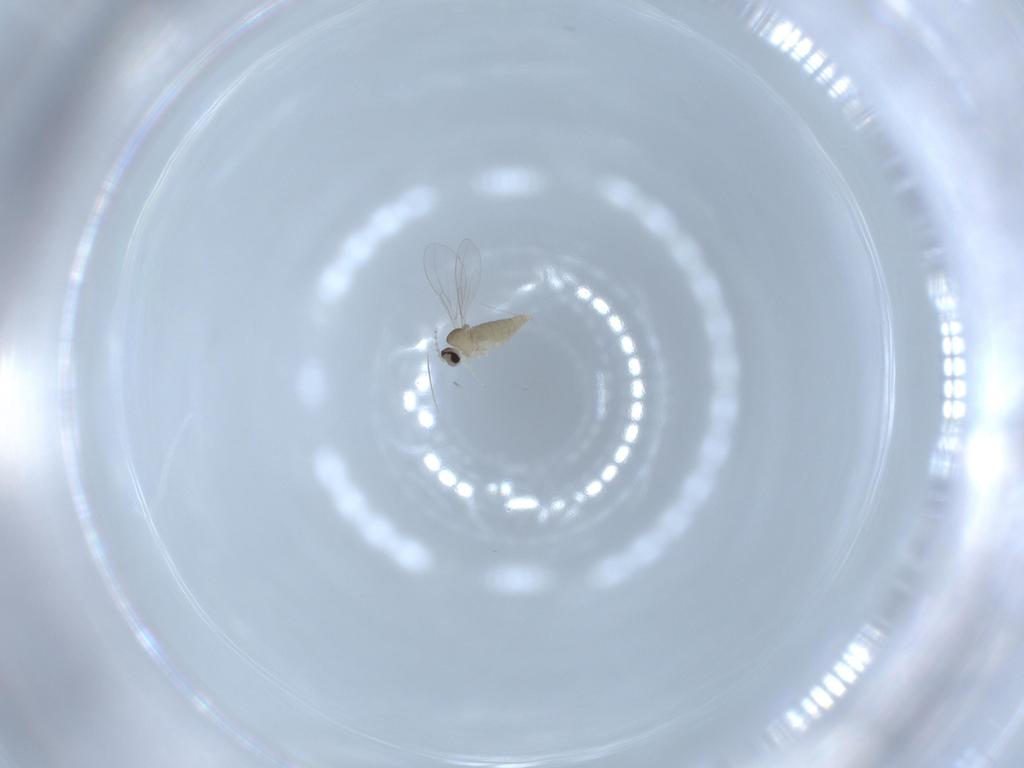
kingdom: Animalia
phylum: Arthropoda
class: Insecta
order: Diptera
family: Cecidomyiidae
